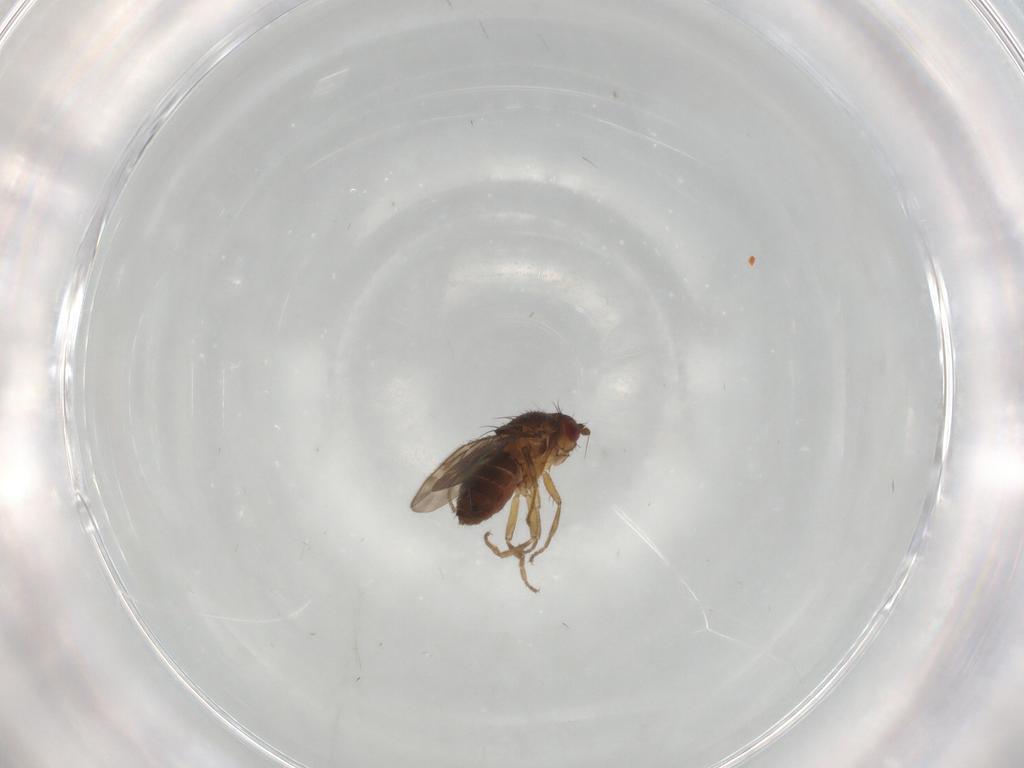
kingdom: Animalia
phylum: Arthropoda
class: Insecta
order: Diptera
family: Sphaeroceridae
